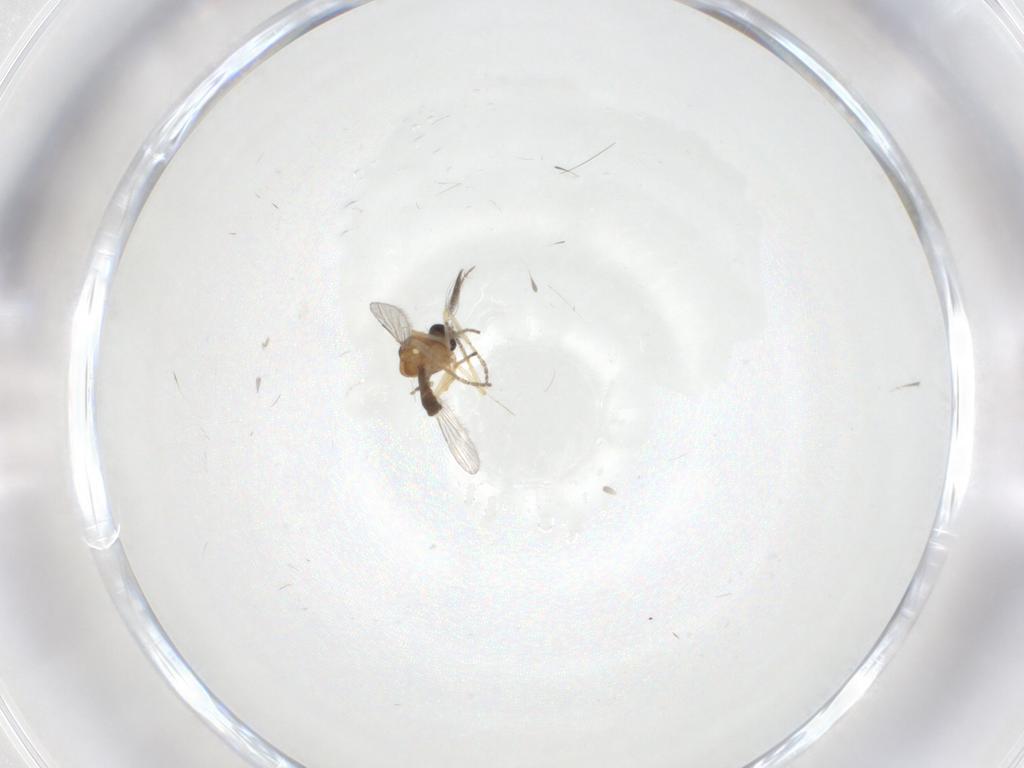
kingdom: Animalia
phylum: Arthropoda
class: Insecta
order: Diptera
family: Ceratopogonidae
